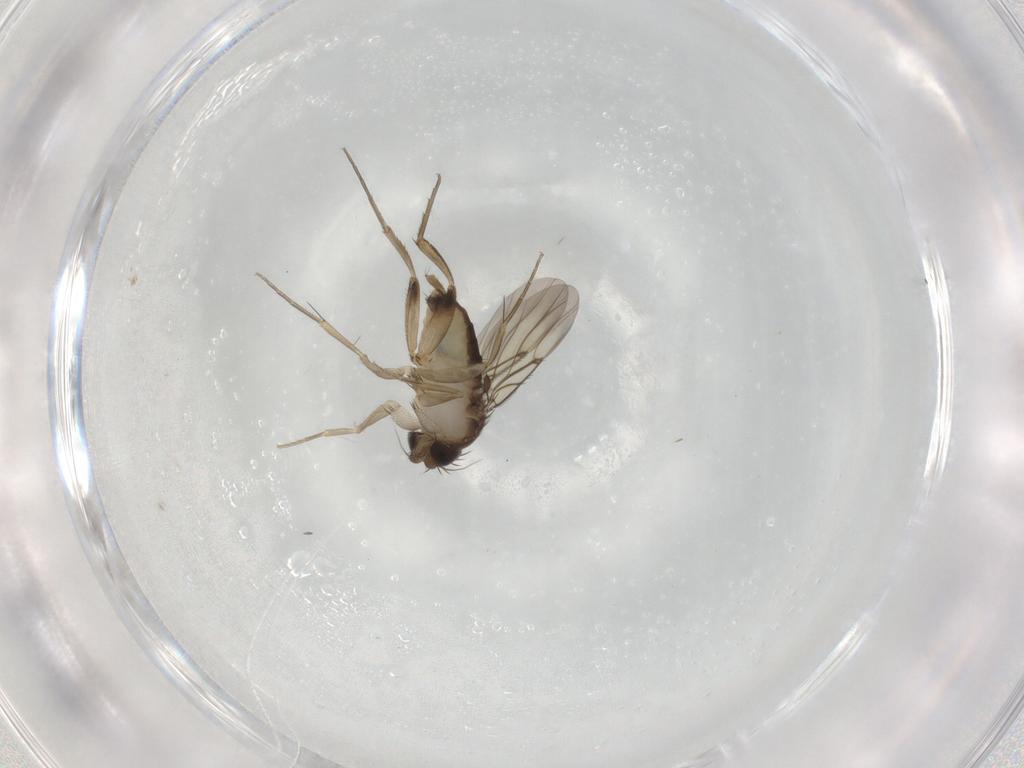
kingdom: Animalia
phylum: Arthropoda
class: Insecta
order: Diptera
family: Phoridae
